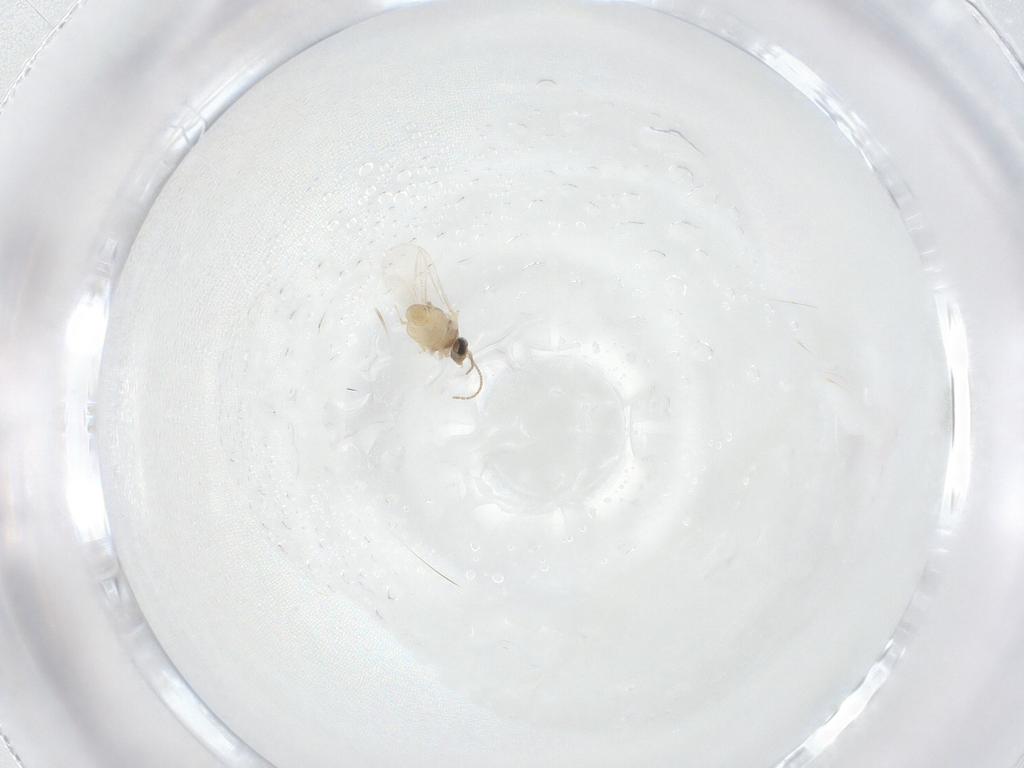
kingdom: Animalia
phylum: Arthropoda
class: Insecta
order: Diptera
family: Cecidomyiidae
